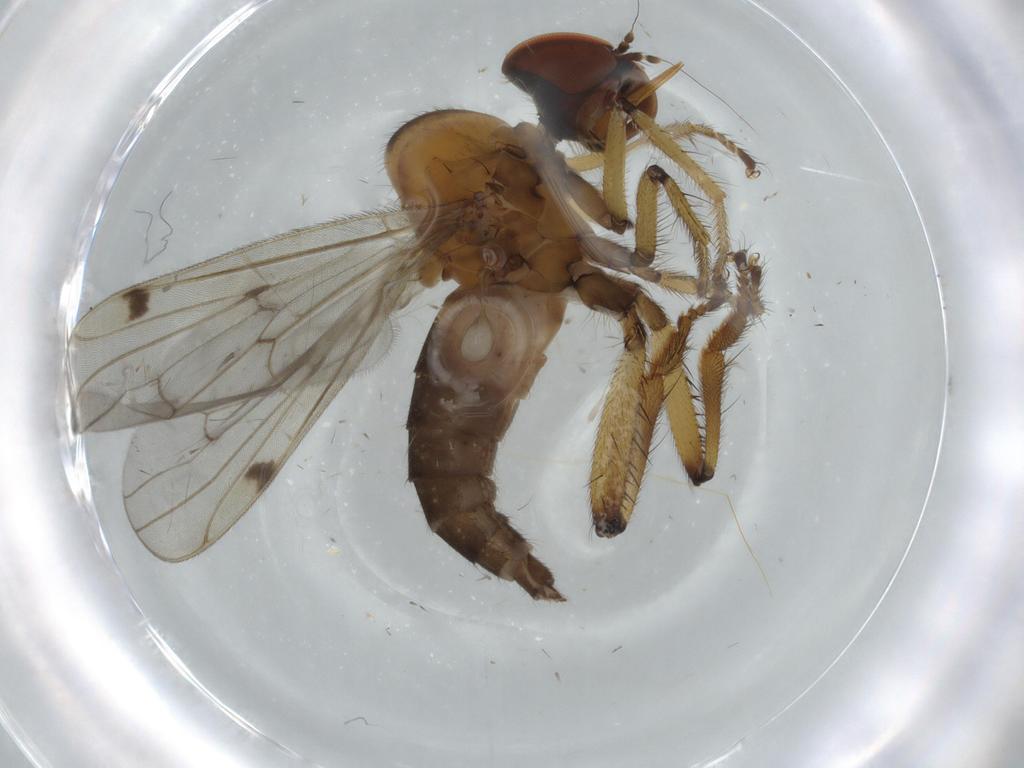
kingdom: Animalia
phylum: Arthropoda
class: Insecta
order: Diptera
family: Hybotidae
